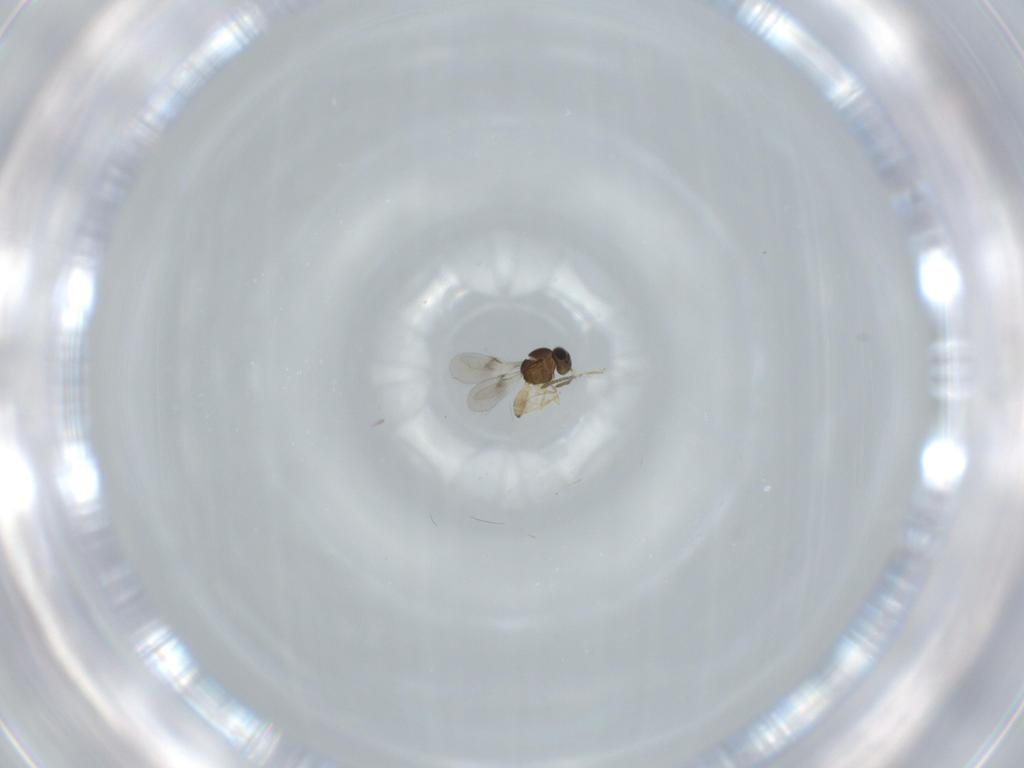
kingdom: Animalia
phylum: Arthropoda
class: Insecta
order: Hymenoptera
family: Scelionidae
